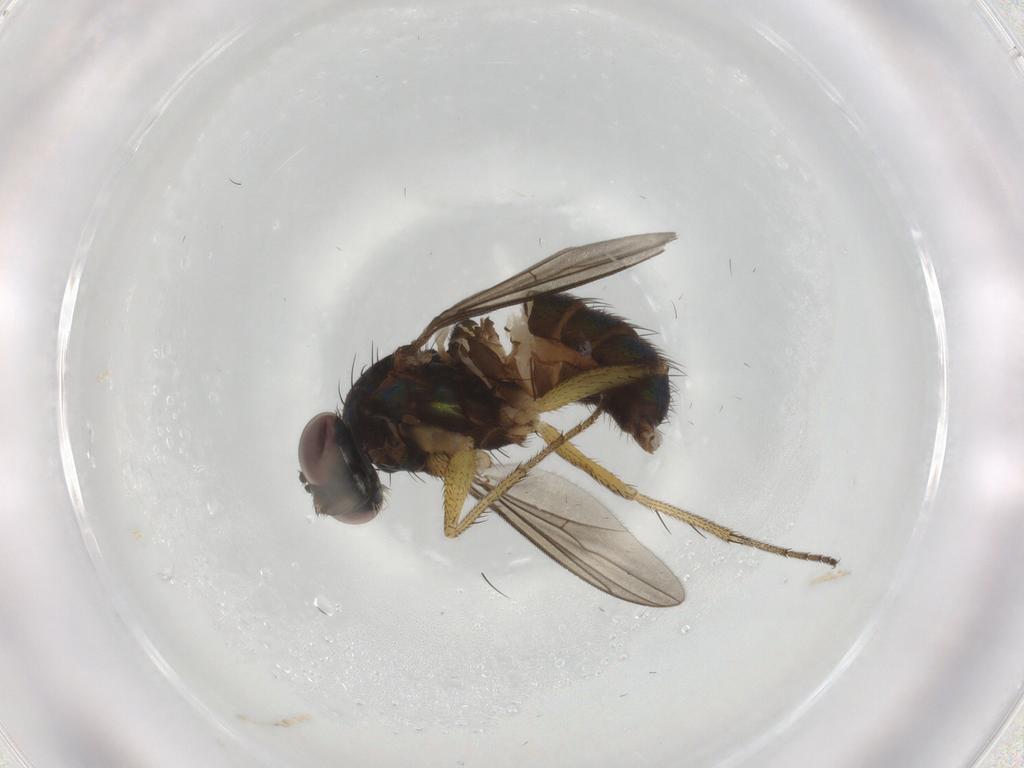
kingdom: Animalia
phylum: Arthropoda
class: Insecta
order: Diptera
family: Dolichopodidae
